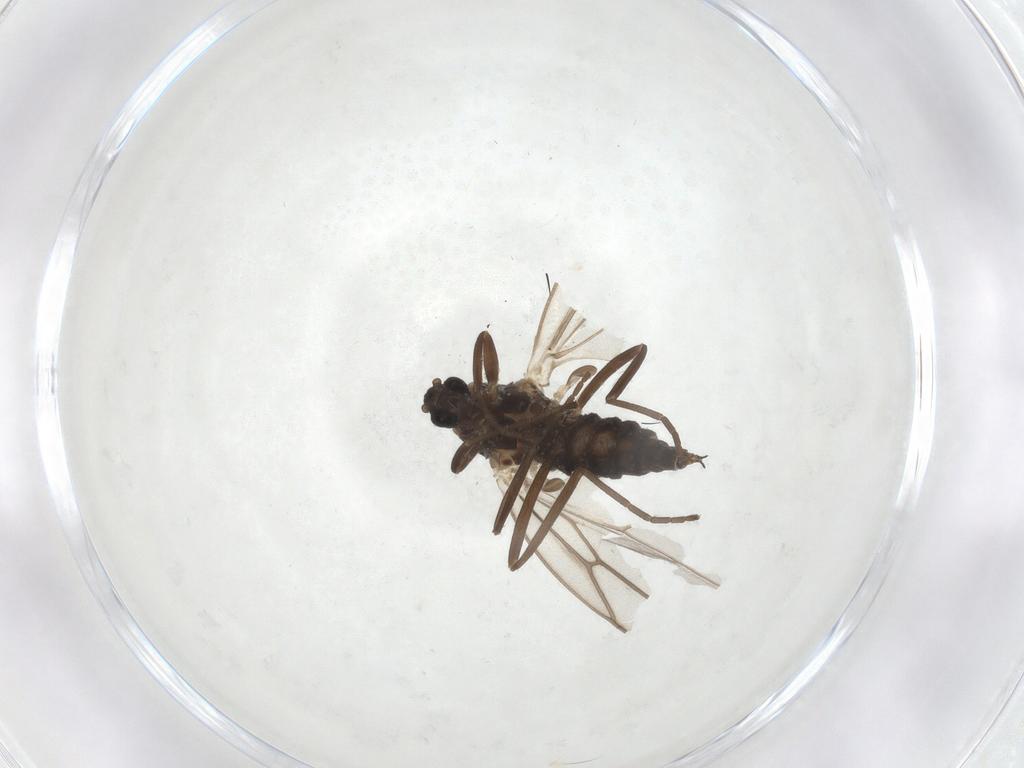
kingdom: Animalia
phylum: Arthropoda
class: Insecta
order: Diptera
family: Cecidomyiidae
